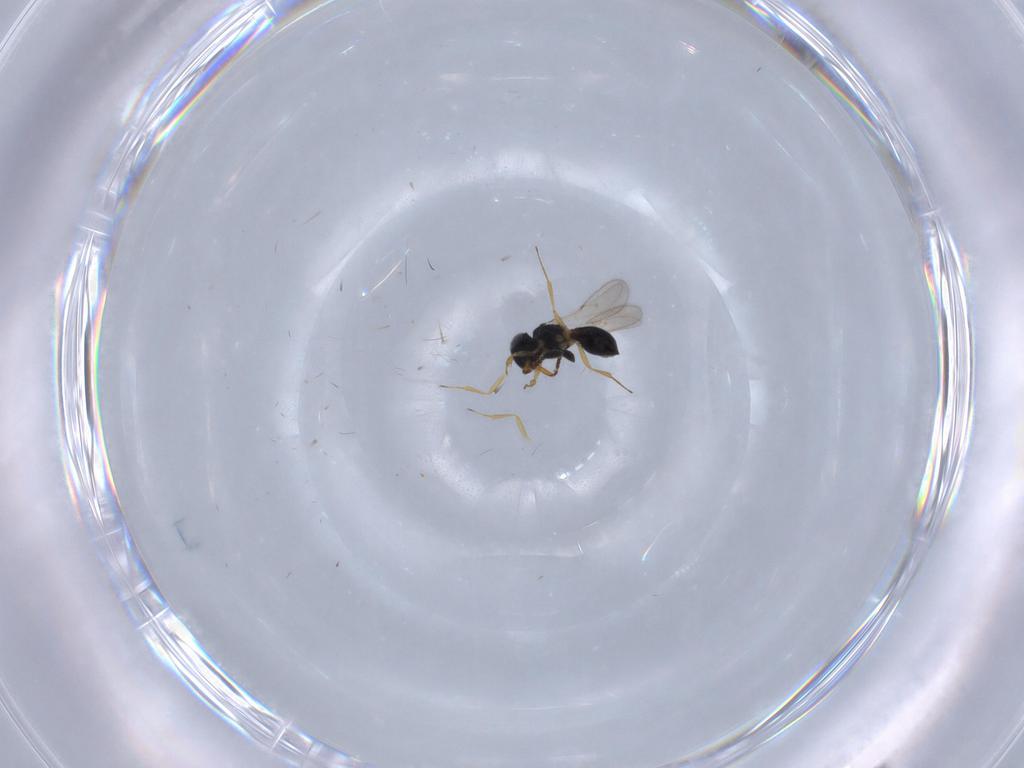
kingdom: Animalia
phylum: Arthropoda
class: Insecta
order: Hymenoptera
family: Scelionidae
